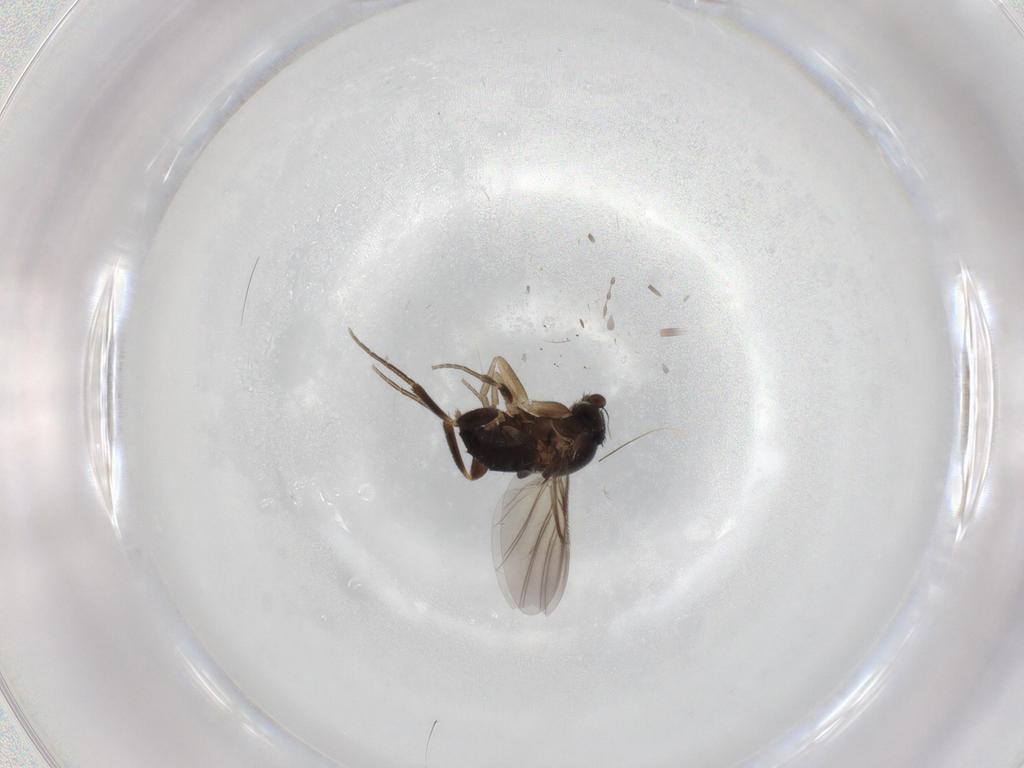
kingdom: Animalia
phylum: Arthropoda
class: Insecta
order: Diptera
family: Cecidomyiidae
